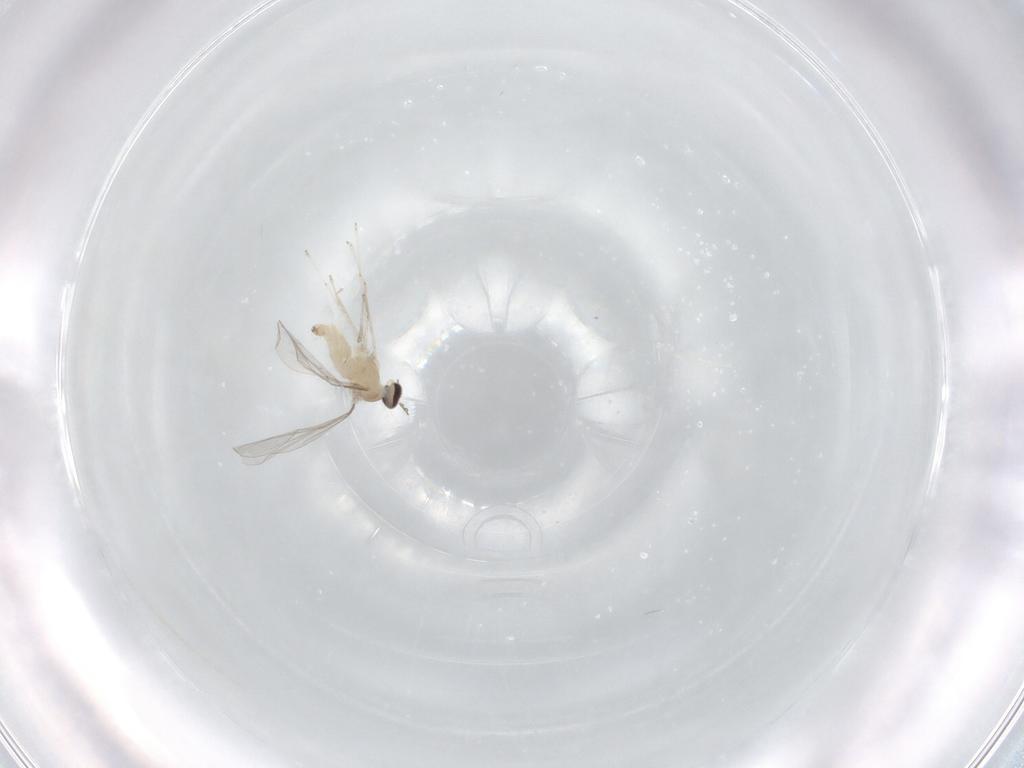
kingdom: Animalia
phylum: Arthropoda
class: Insecta
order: Diptera
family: Cecidomyiidae
